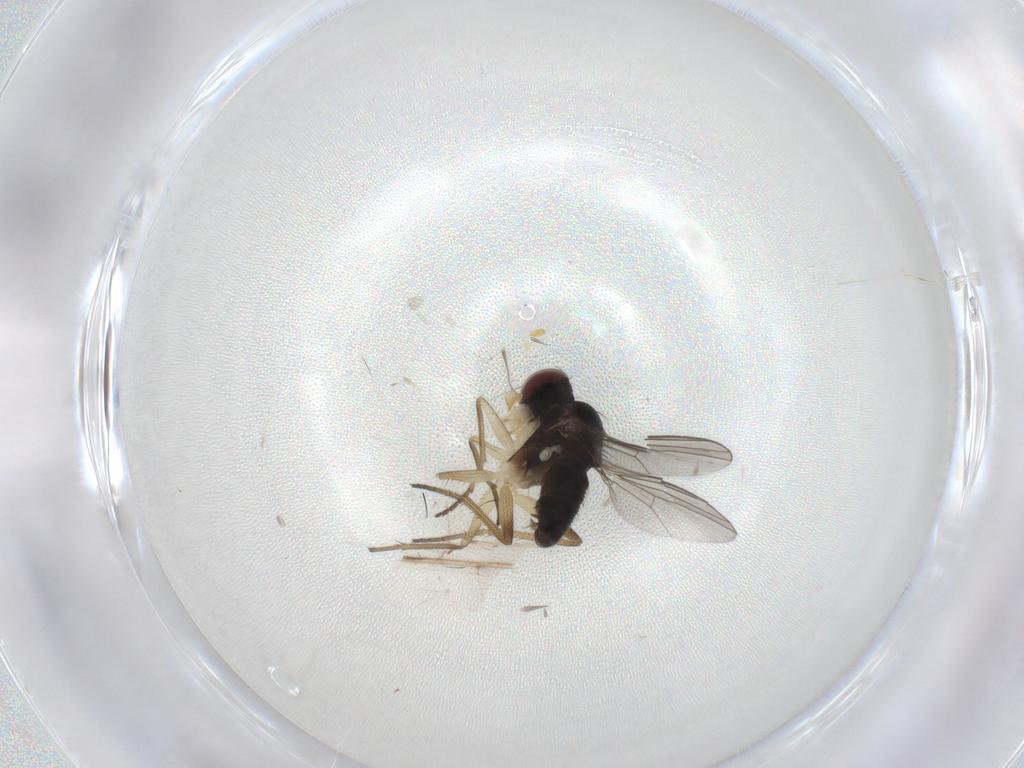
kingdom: Animalia
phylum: Arthropoda
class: Insecta
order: Diptera
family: Dolichopodidae
